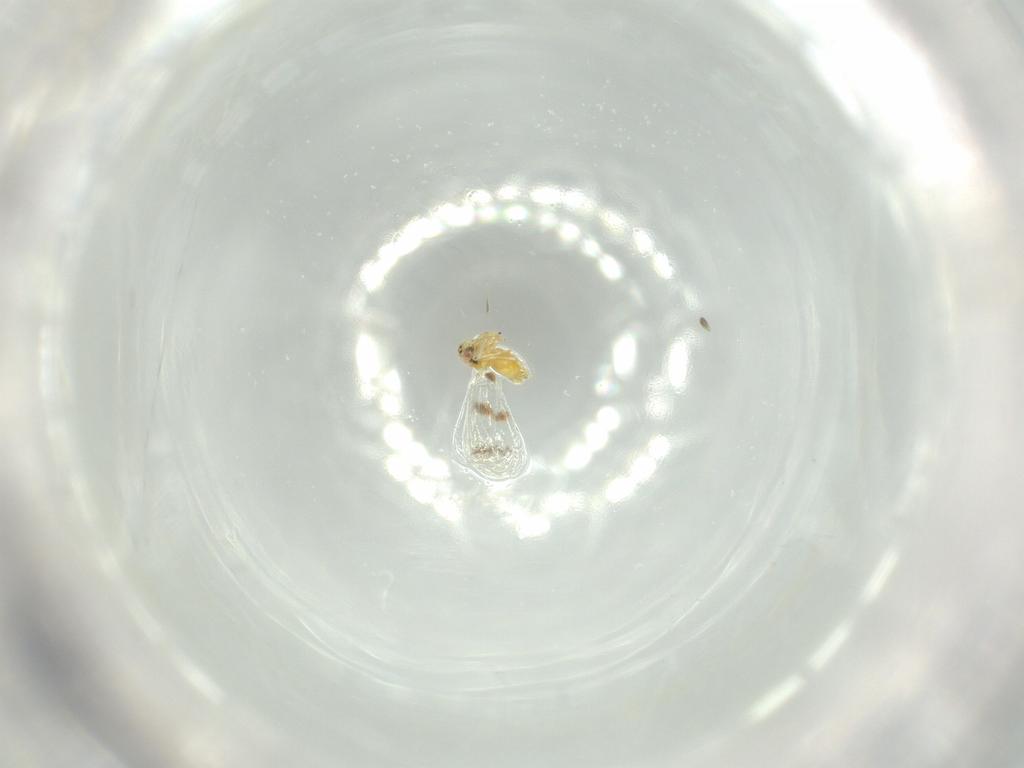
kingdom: Animalia
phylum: Arthropoda
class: Insecta
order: Hemiptera
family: Aleyrodidae
